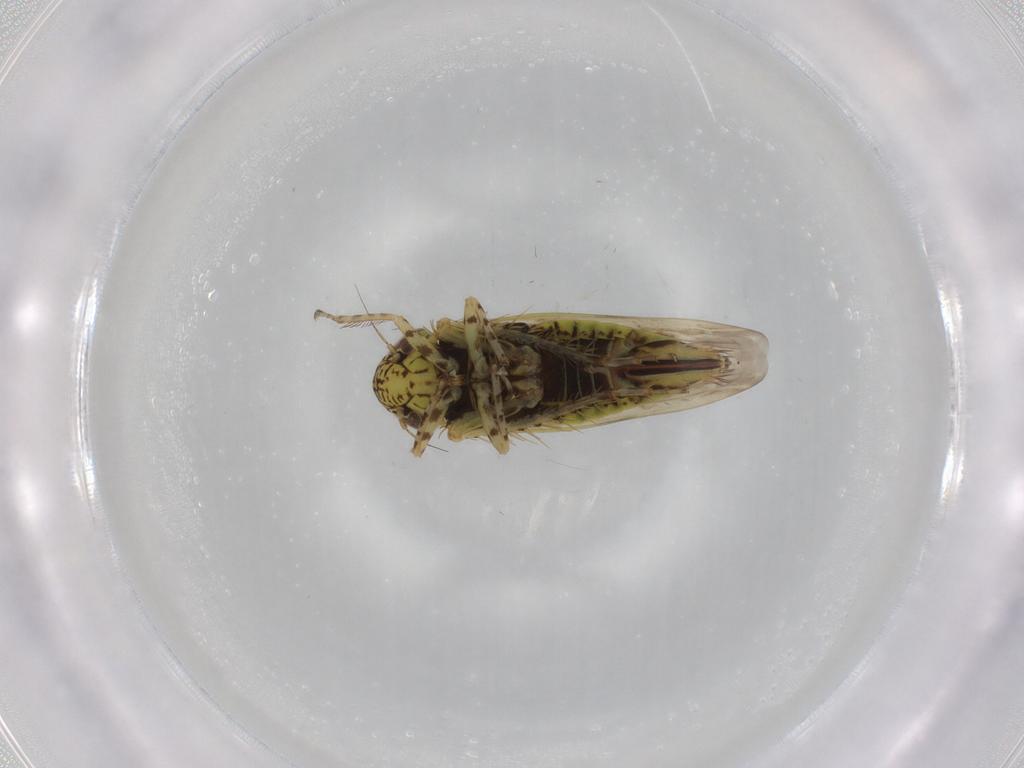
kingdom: Animalia
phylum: Arthropoda
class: Insecta
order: Hemiptera
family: Cicadellidae
